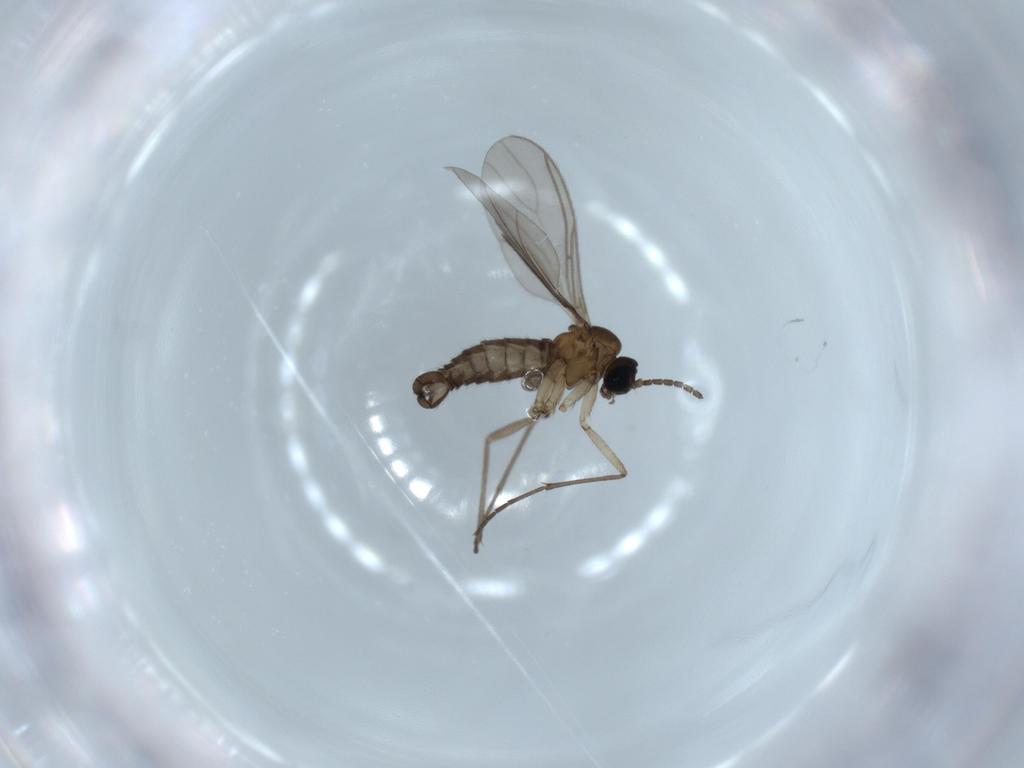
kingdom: Animalia
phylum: Arthropoda
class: Insecta
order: Diptera
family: Sciaridae
